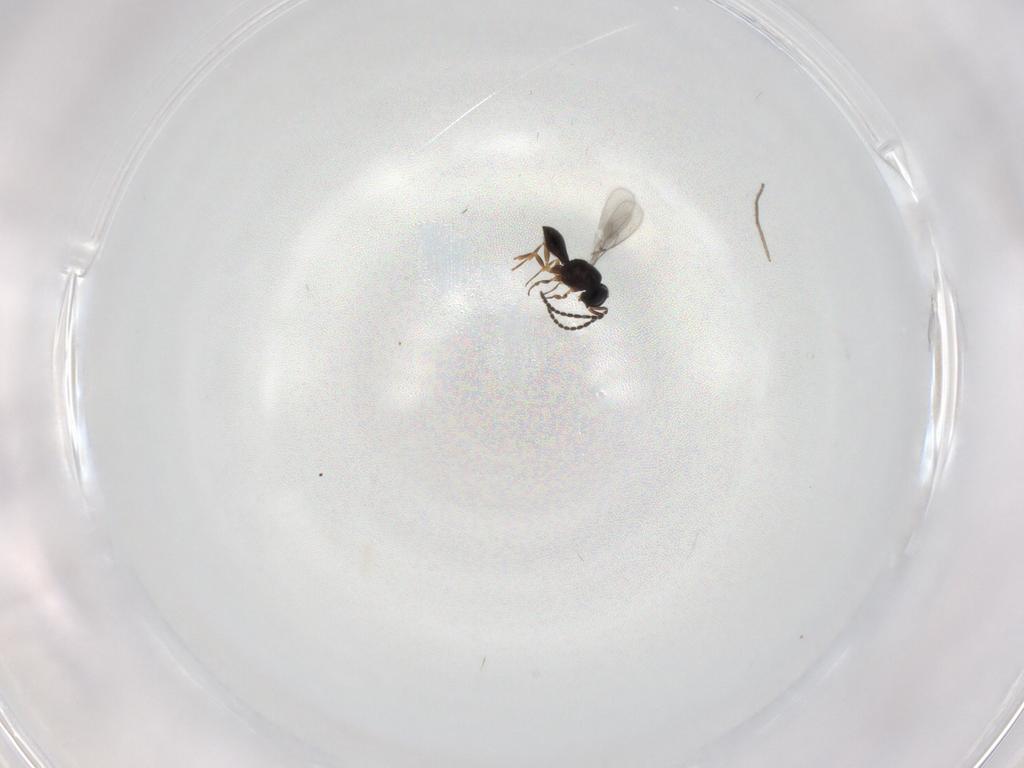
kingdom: Animalia
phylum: Arthropoda
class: Insecta
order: Hymenoptera
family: Scelionidae
